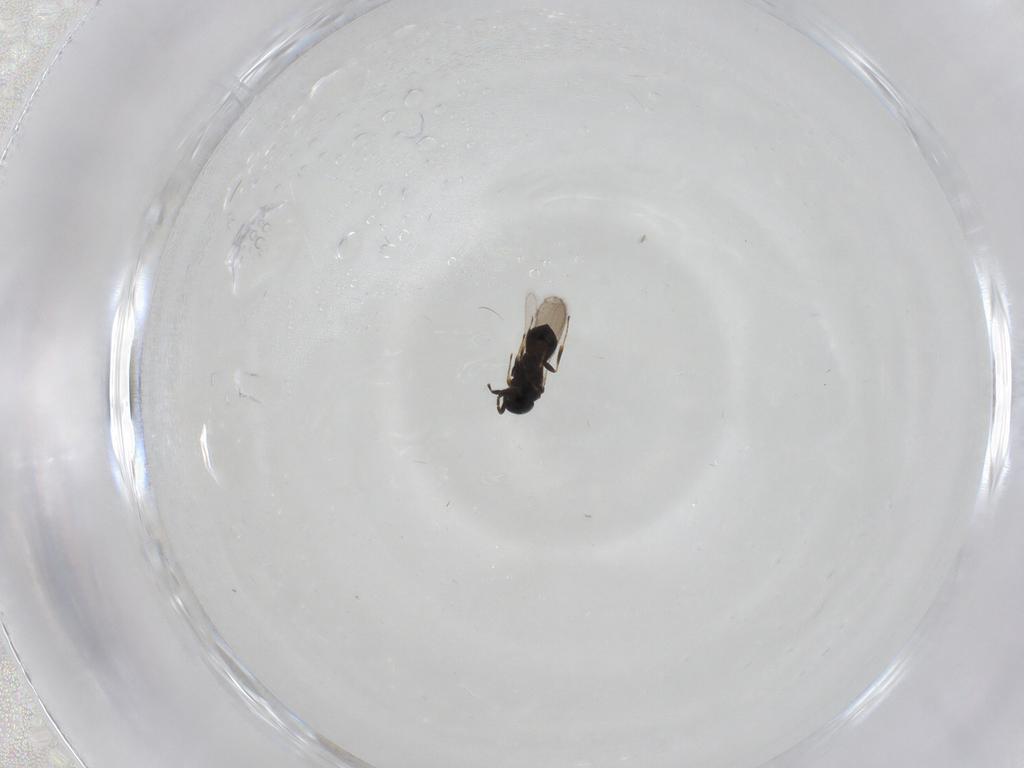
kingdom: Animalia
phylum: Arthropoda
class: Insecta
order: Hymenoptera
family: Scelionidae
